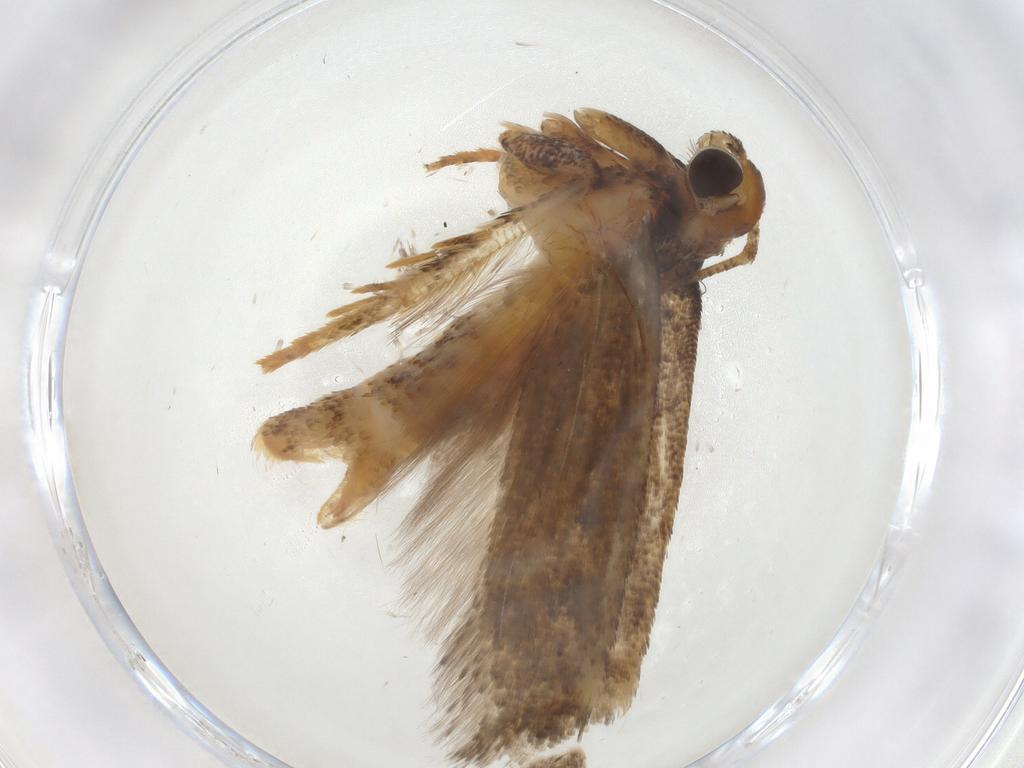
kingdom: Animalia
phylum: Arthropoda
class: Insecta
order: Lepidoptera
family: Gelechiidae
